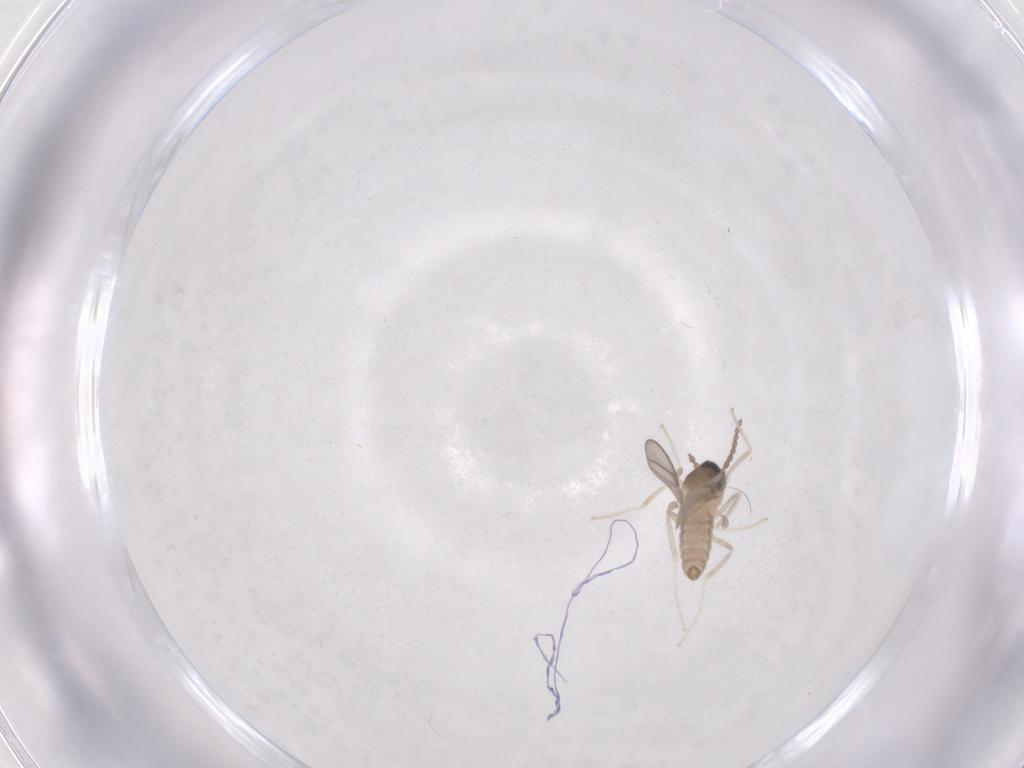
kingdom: Animalia
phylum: Arthropoda
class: Insecta
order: Diptera
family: Cecidomyiidae
